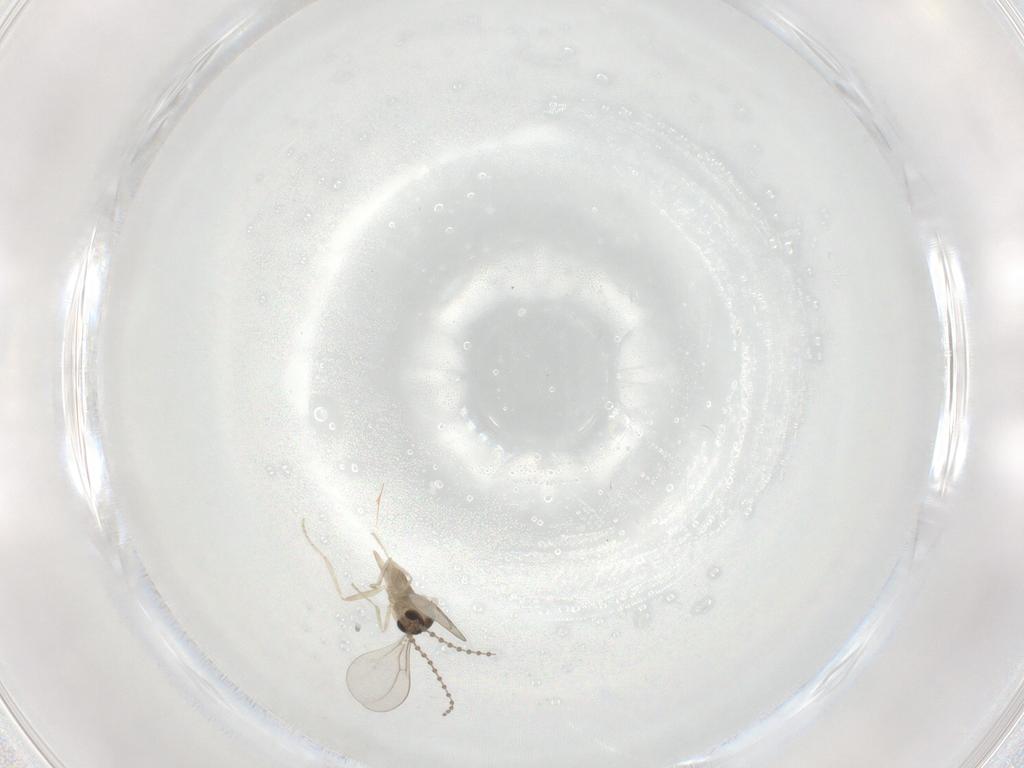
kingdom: Animalia
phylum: Arthropoda
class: Insecta
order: Diptera
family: Cecidomyiidae
